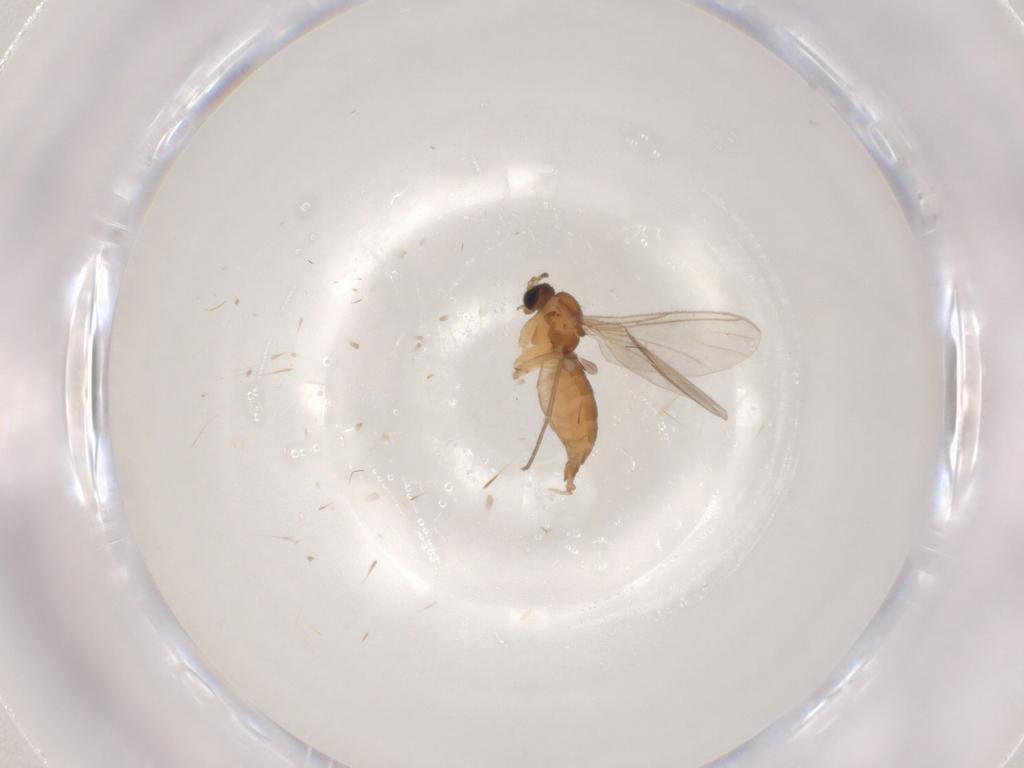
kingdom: Animalia
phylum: Arthropoda
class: Insecta
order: Diptera
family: Sciaridae
